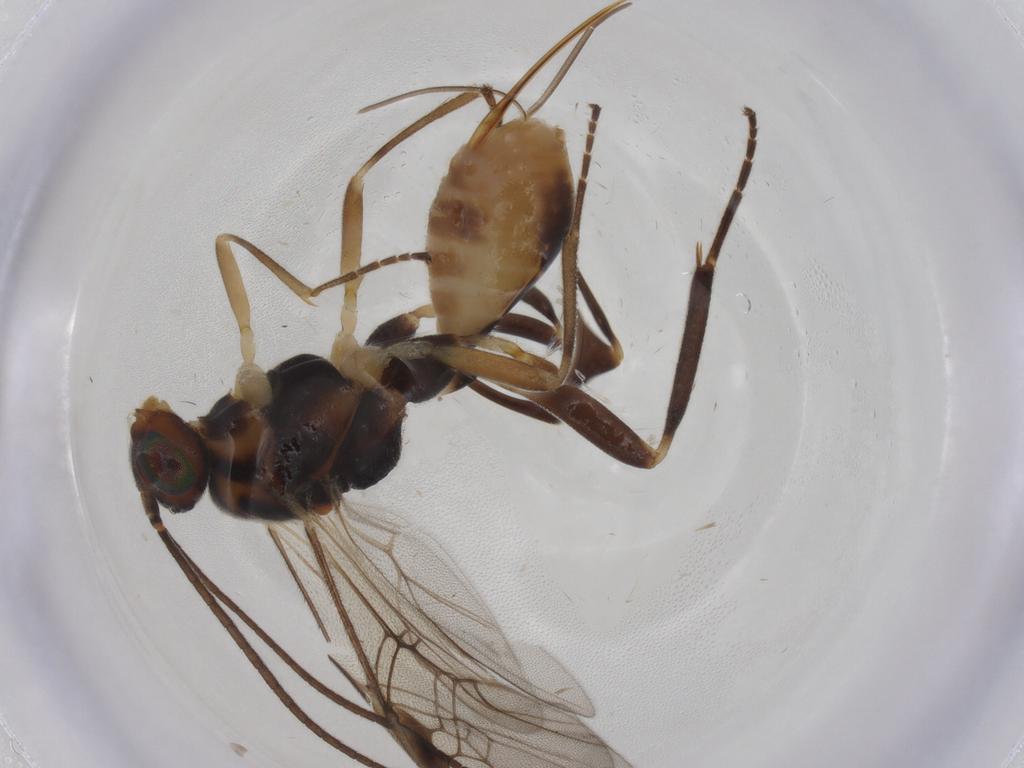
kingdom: Animalia
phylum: Arthropoda
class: Insecta
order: Hymenoptera
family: Braconidae
